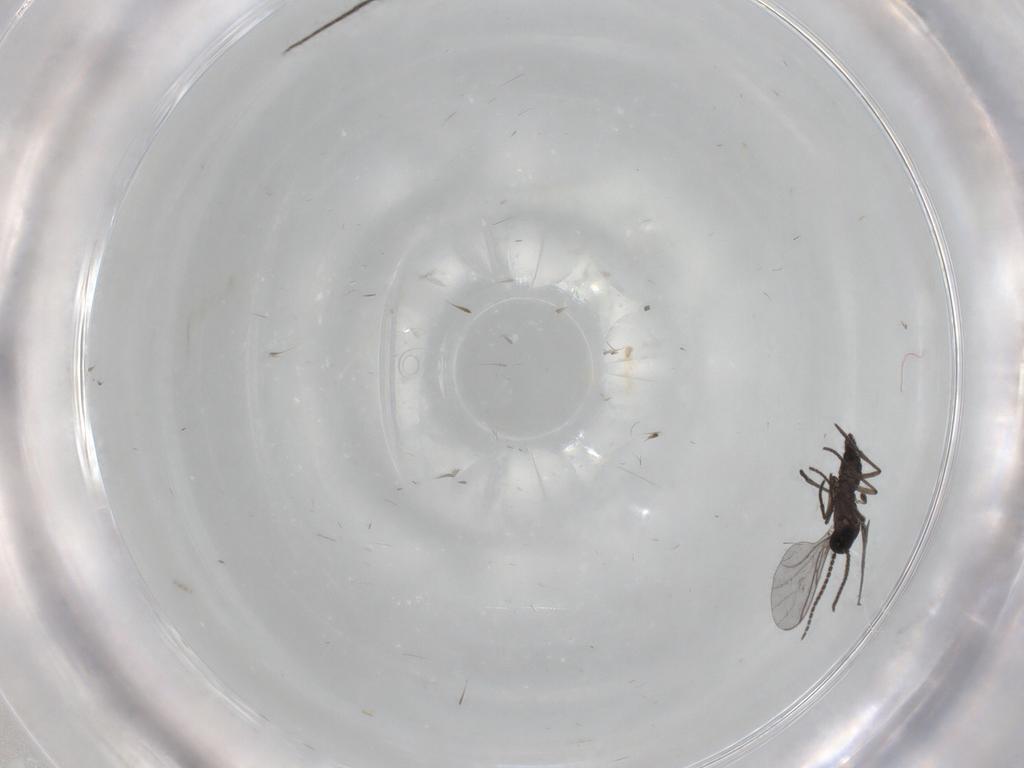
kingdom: Animalia
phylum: Arthropoda
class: Insecta
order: Diptera
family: Sciaridae
